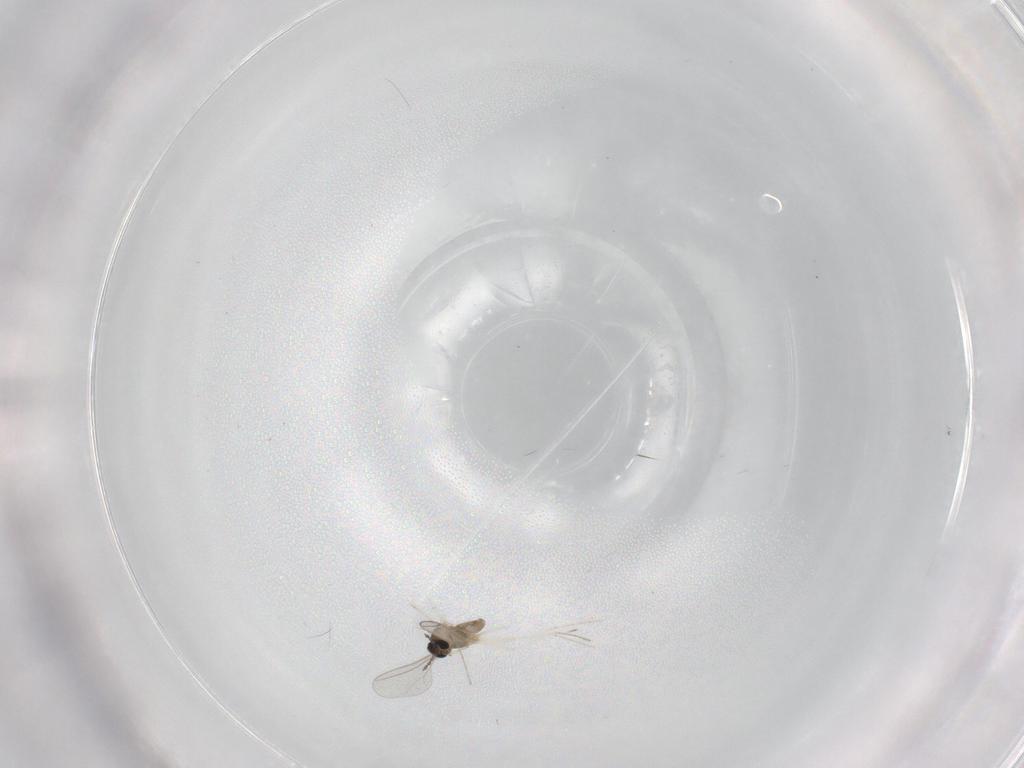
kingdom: Animalia
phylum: Arthropoda
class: Insecta
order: Diptera
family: Cecidomyiidae
